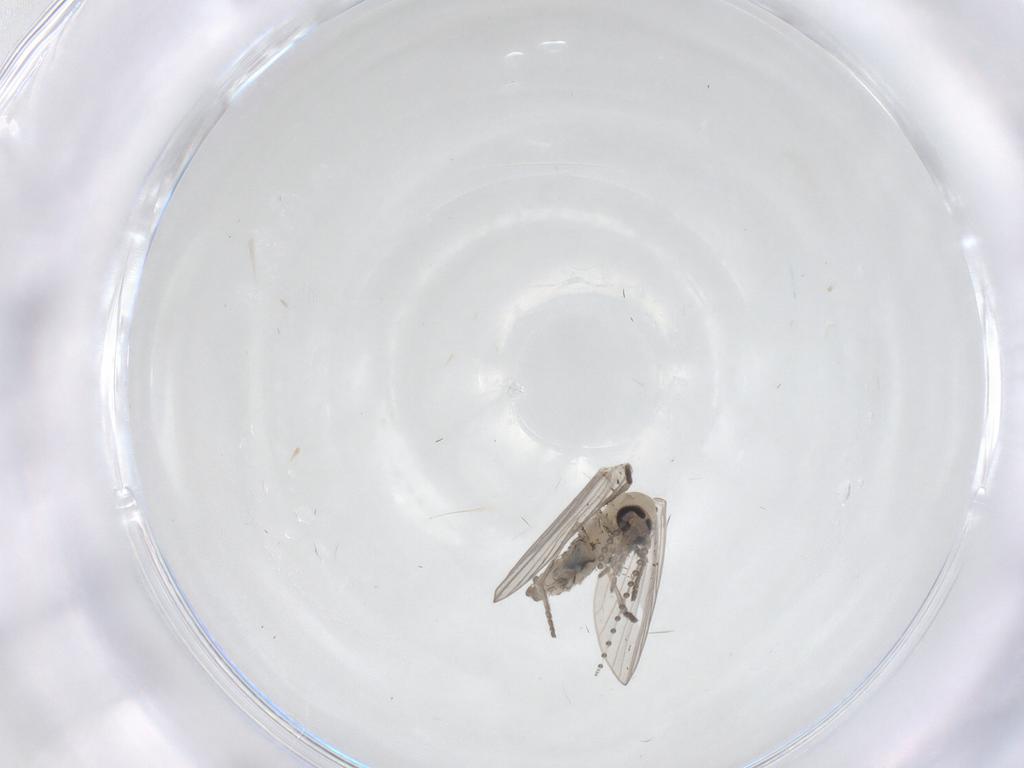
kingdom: Animalia
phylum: Arthropoda
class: Insecta
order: Diptera
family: Psychodidae
